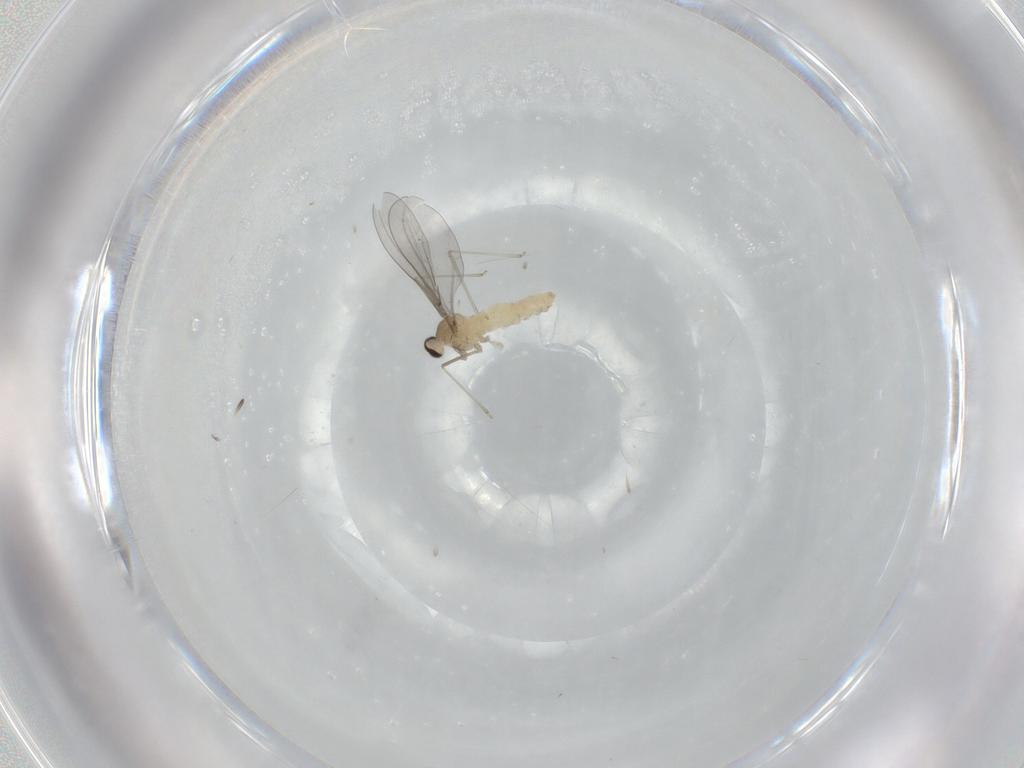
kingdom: Animalia
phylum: Arthropoda
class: Insecta
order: Diptera
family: Cecidomyiidae
